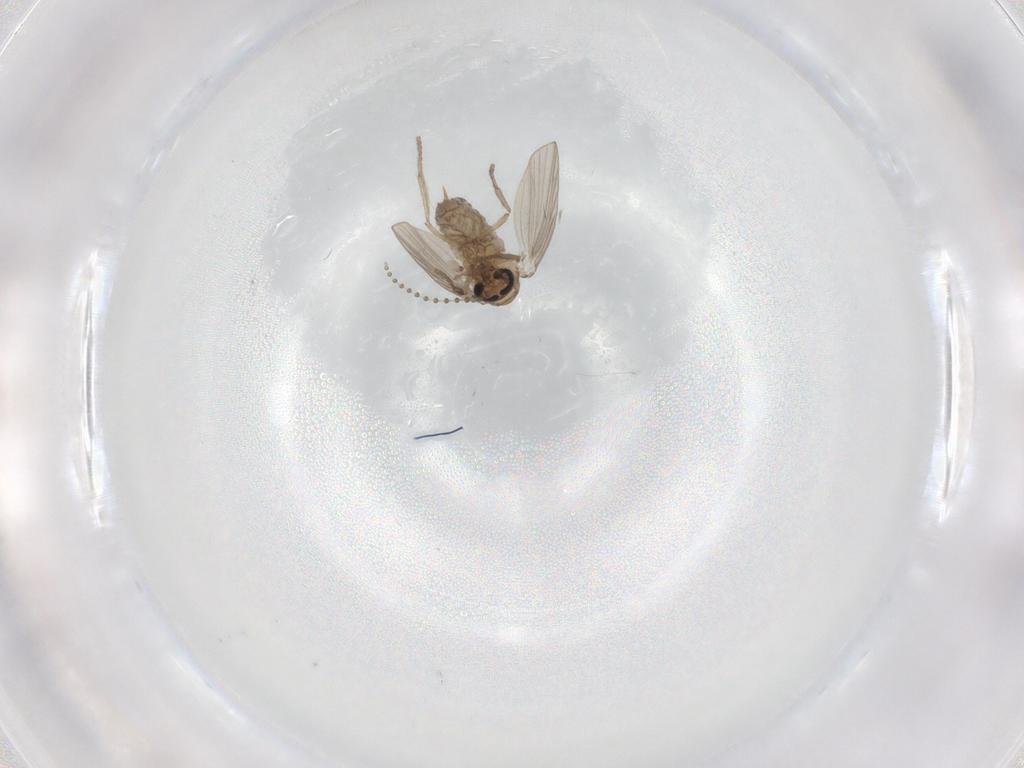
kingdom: Animalia
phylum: Arthropoda
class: Insecta
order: Diptera
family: Psychodidae
